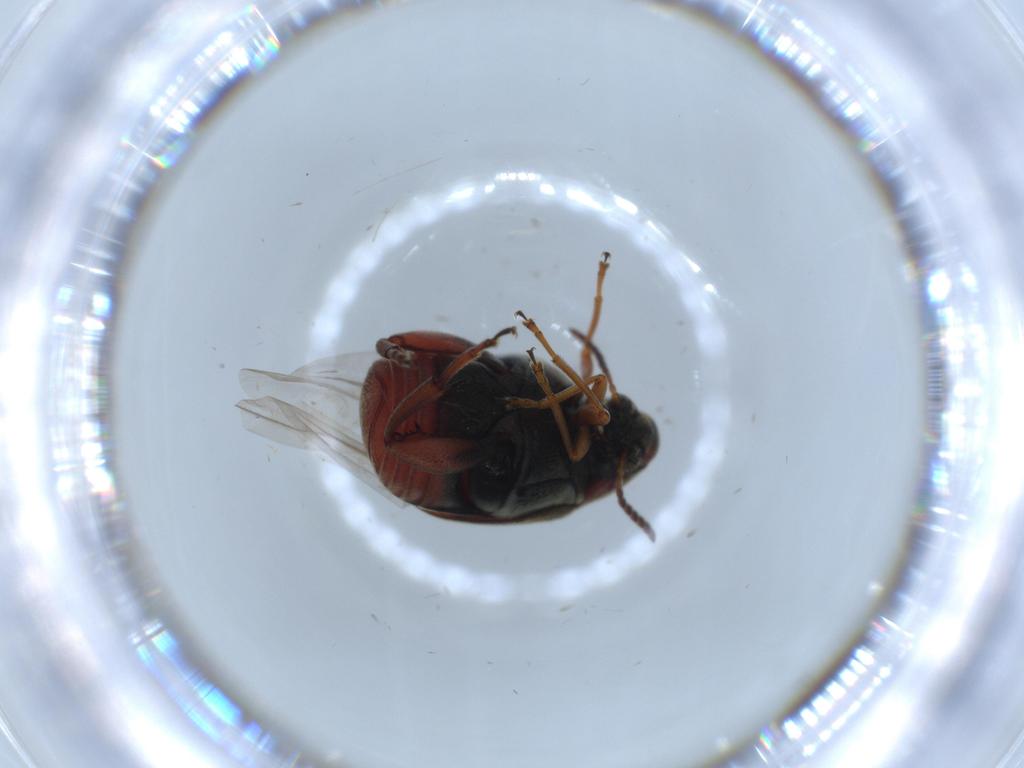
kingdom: Animalia
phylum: Arthropoda
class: Insecta
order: Coleoptera
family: Chrysomelidae
